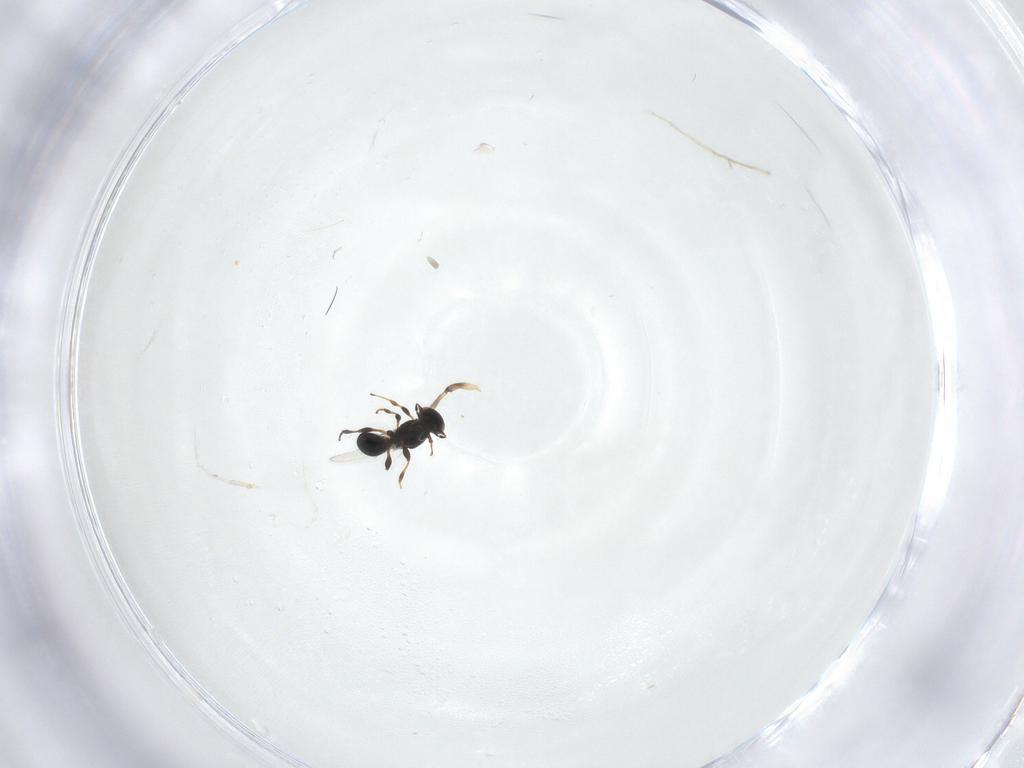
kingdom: Animalia
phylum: Arthropoda
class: Insecta
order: Hymenoptera
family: Platygastridae
